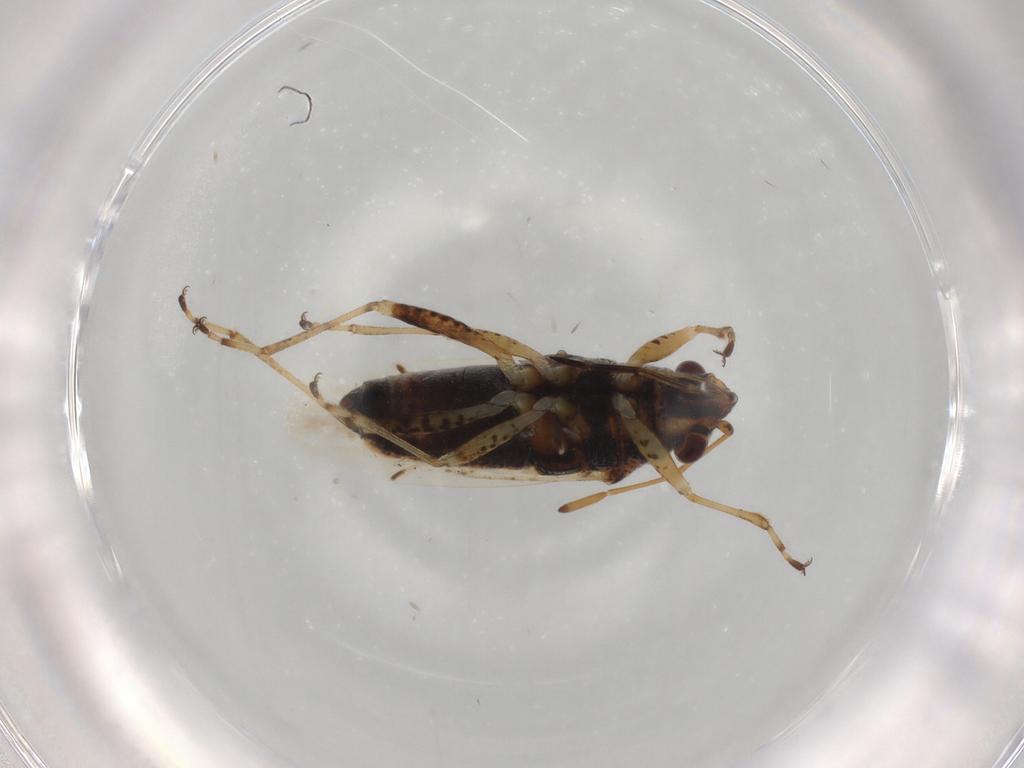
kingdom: Animalia
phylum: Arthropoda
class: Insecta
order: Hemiptera
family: Lygaeidae
